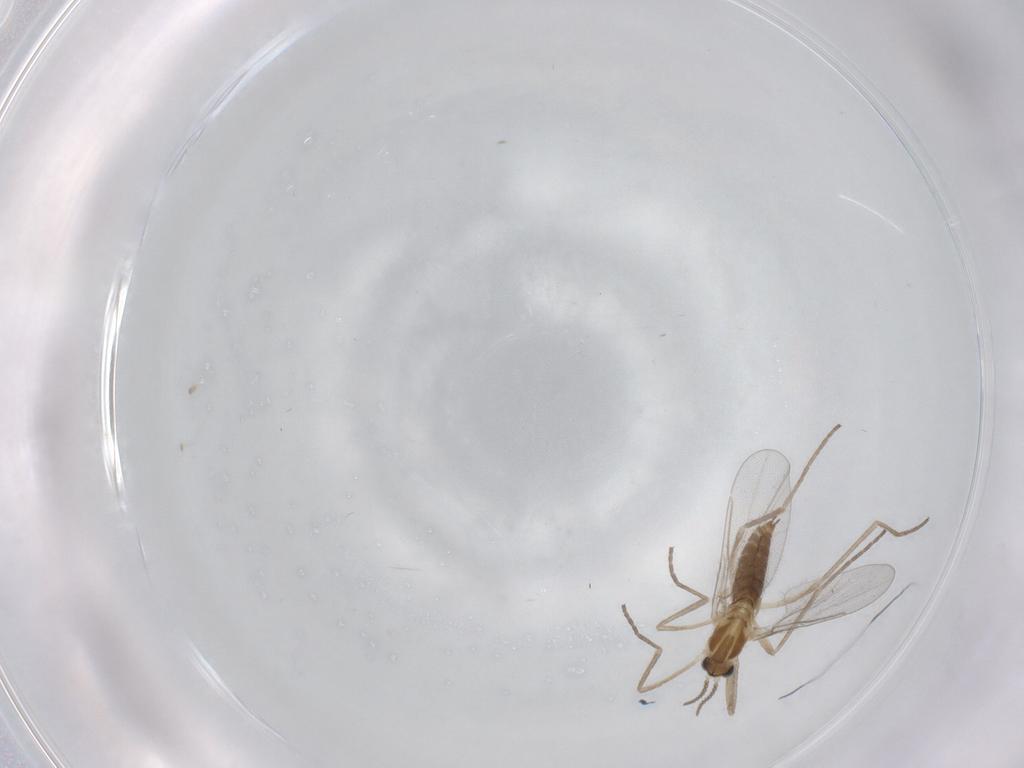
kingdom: Animalia
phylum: Arthropoda
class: Insecta
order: Diptera
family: Cecidomyiidae
